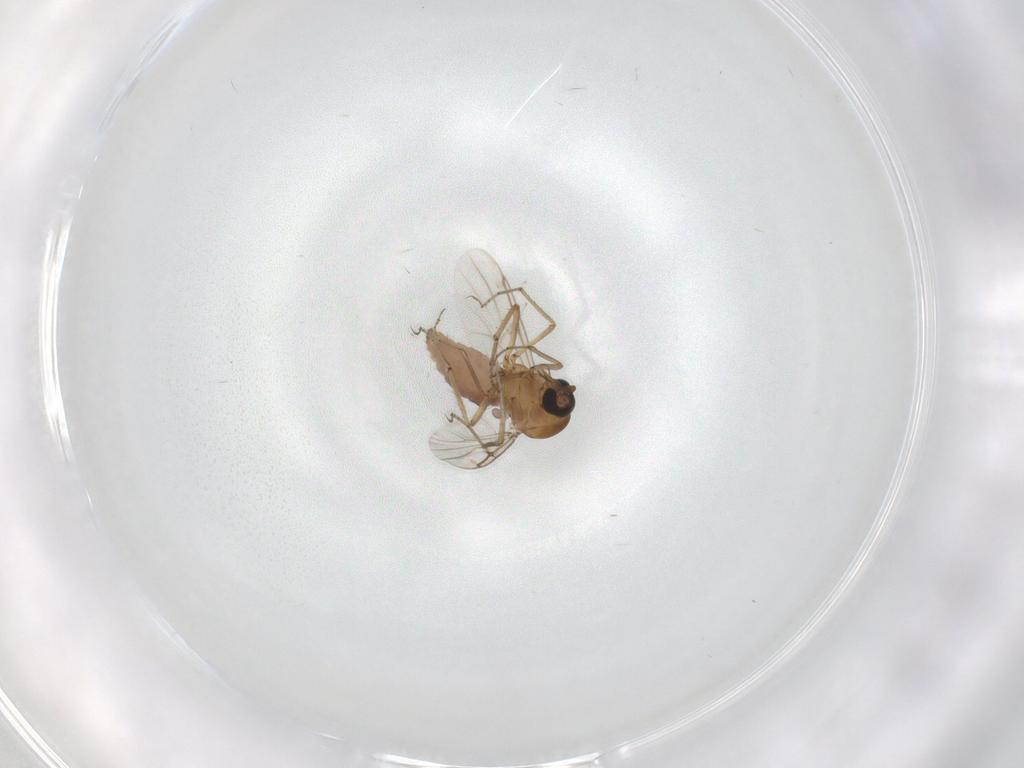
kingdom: Animalia
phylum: Arthropoda
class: Insecta
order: Diptera
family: Ceratopogonidae
